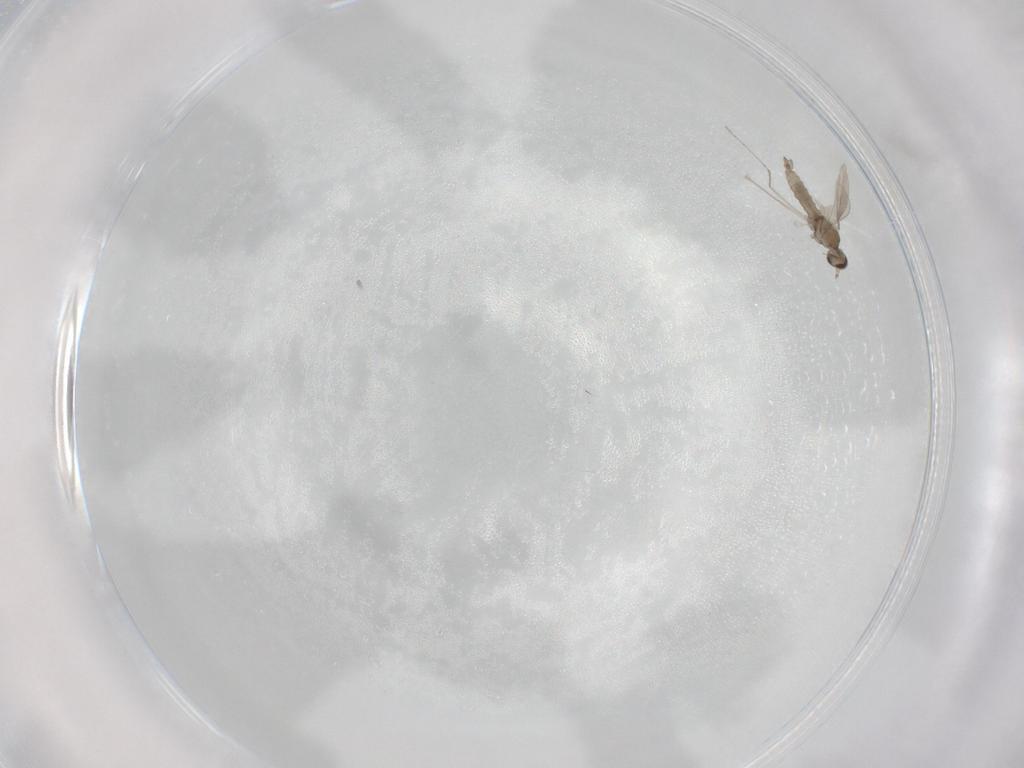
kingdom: Animalia
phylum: Arthropoda
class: Insecta
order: Diptera
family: Cecidomyiidae
